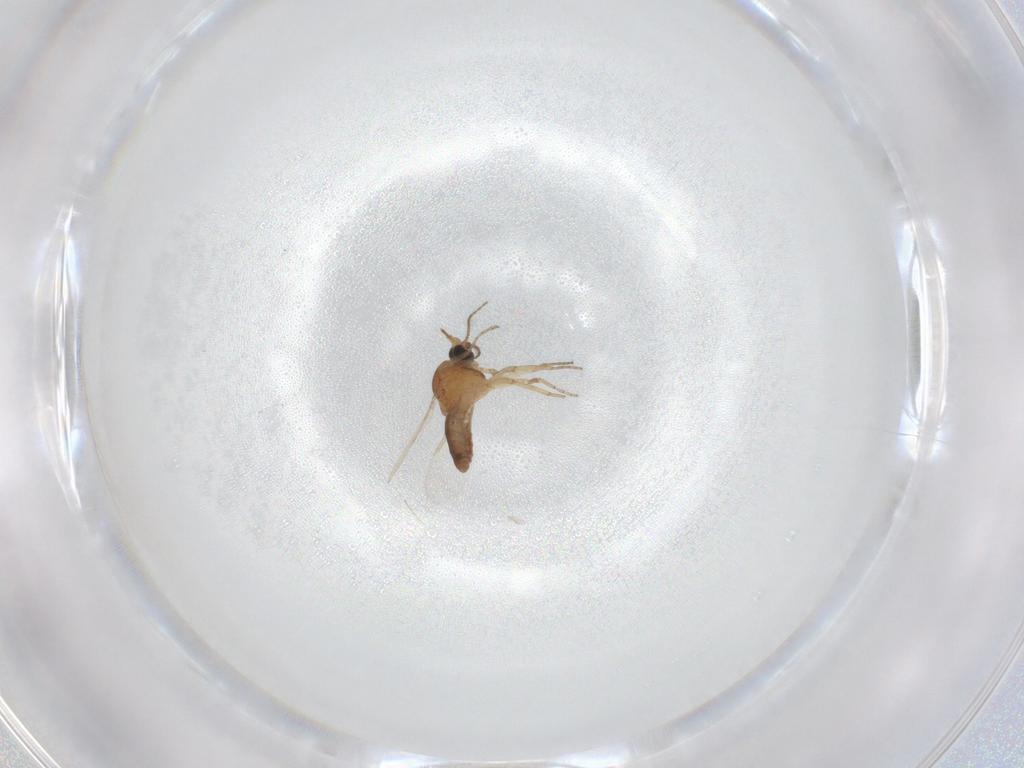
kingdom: Animalia
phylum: Arthropoda
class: Insecta
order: Diptera
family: Ceratopogonidae
